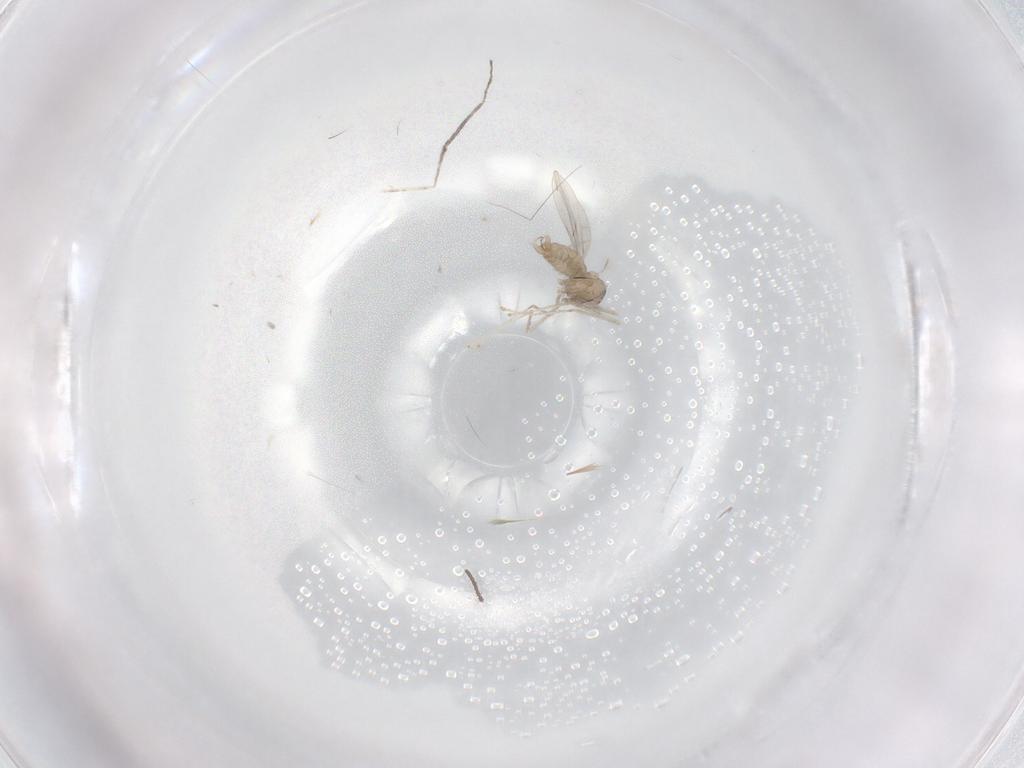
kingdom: Animalia
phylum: Arthropoda
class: Insecta
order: Diptera
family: Cecidomyiidae
